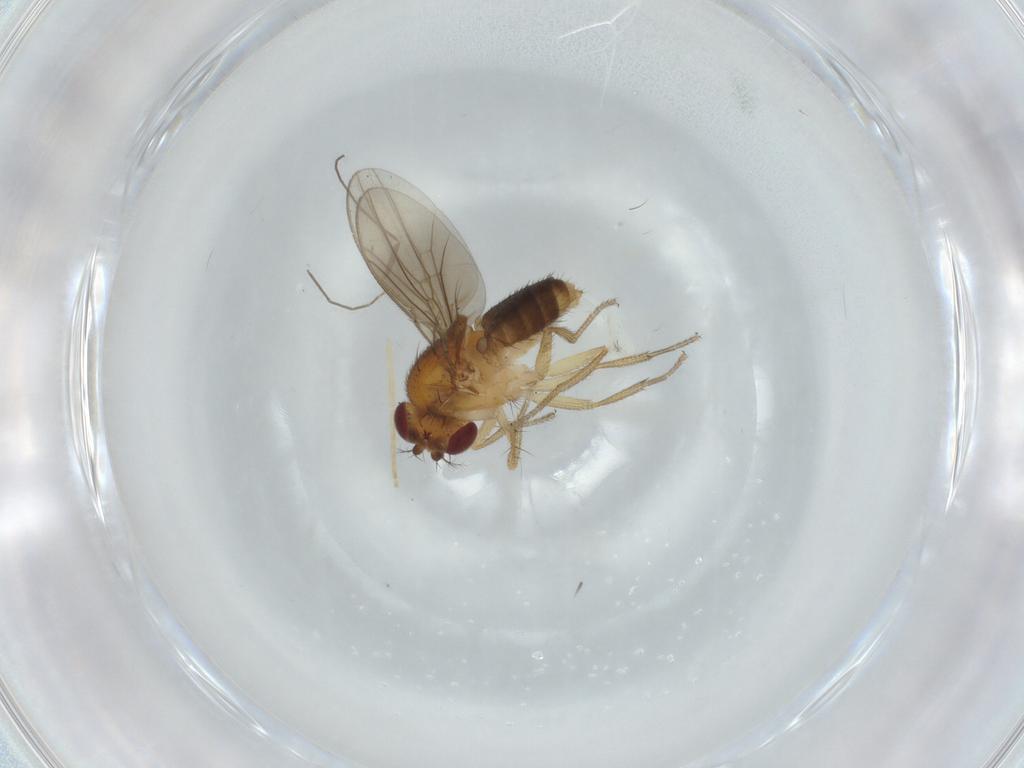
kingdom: Animalia
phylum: Arthropoda
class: Insecta
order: Diptera
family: Drosophilidae
